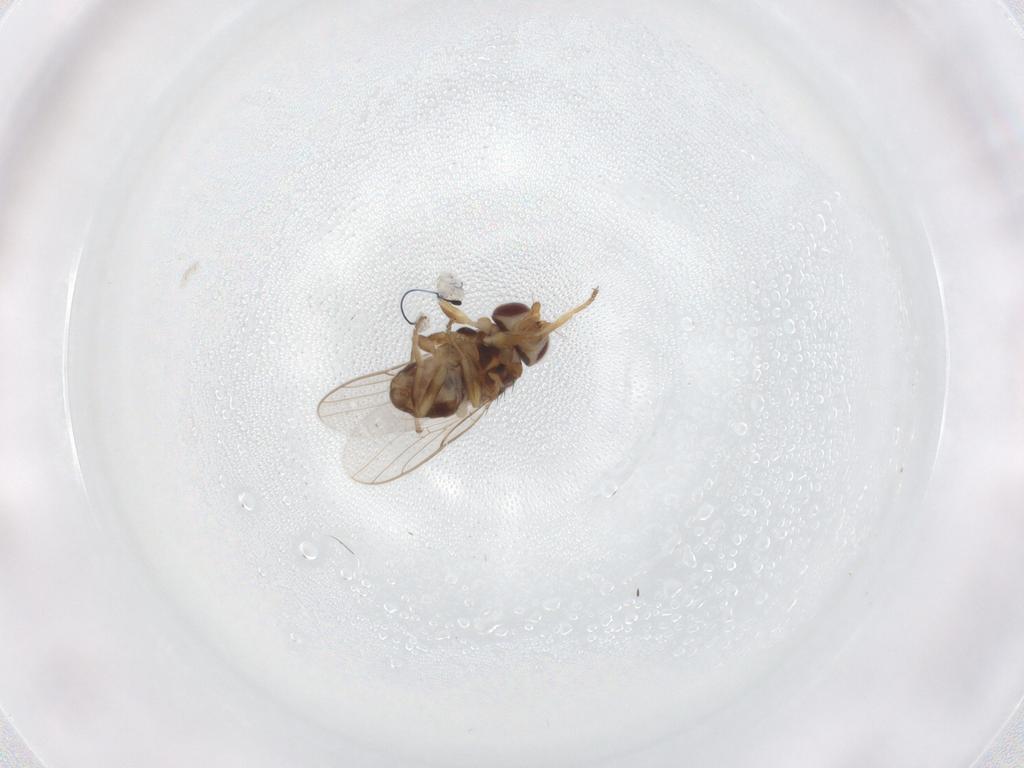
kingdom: Animalia
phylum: Arthropoda
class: Insecta
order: Diptera
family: Chloropidae
